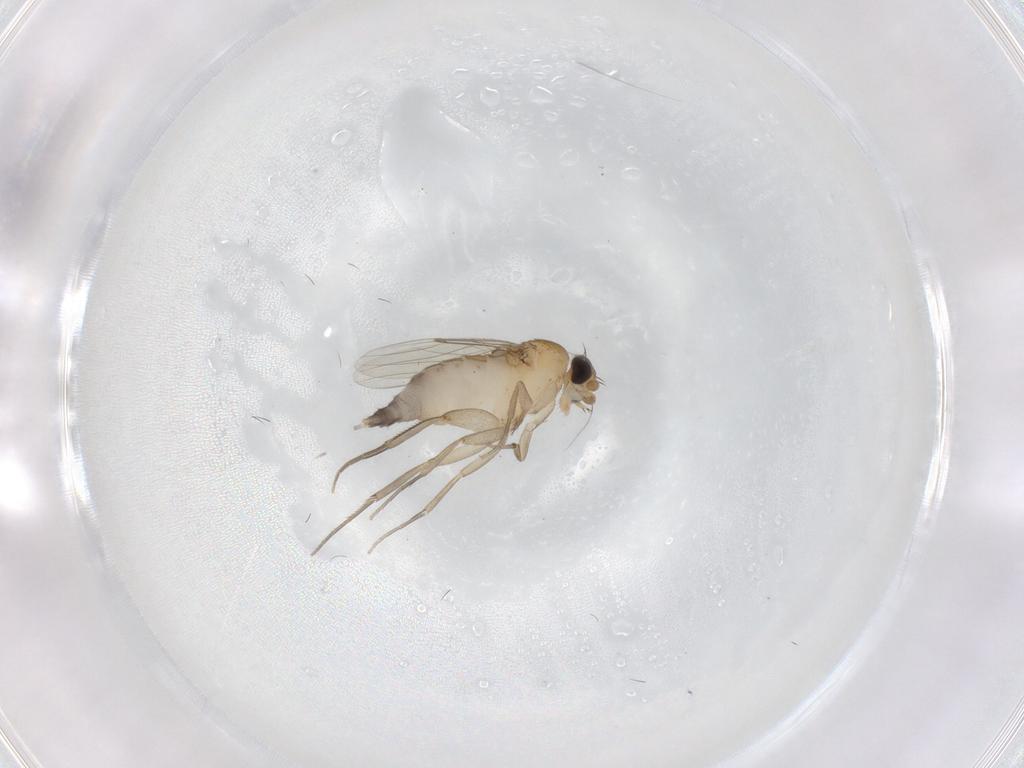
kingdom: Animalia
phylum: Arthropoda
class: Insecta
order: Diptera
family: Phoridae
